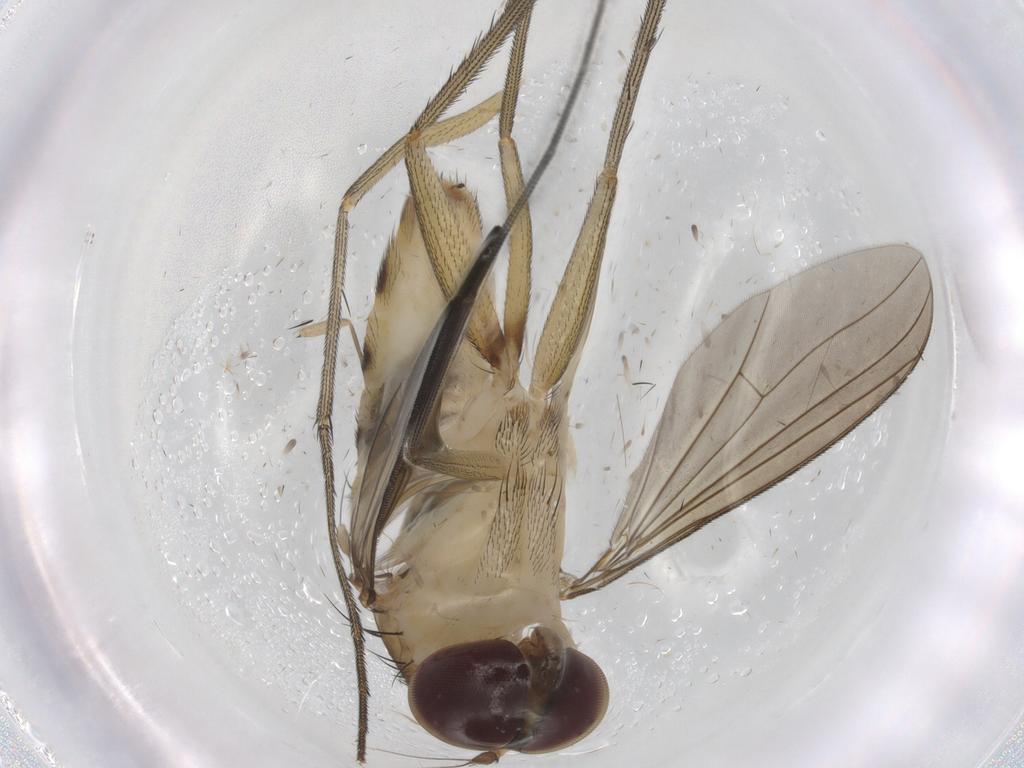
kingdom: Animalia
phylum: Arthropoda
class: Insecta
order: Diptera
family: Dolichopodidae
